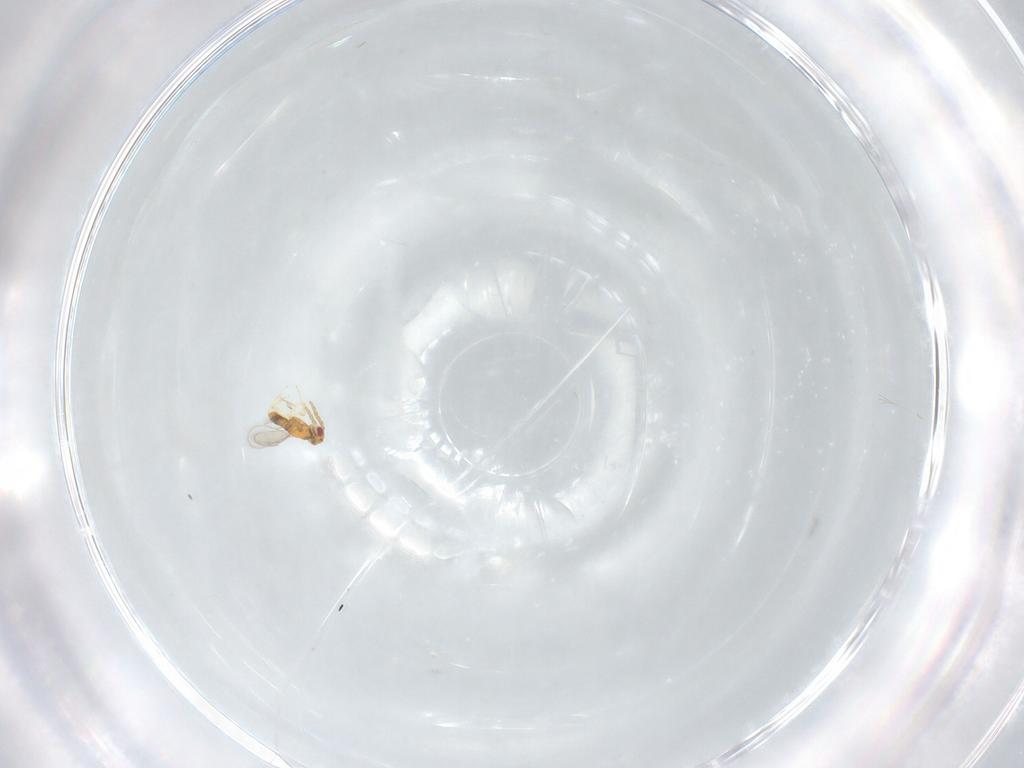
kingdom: Animalia
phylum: Arthropoda
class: Insecta
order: Hymenoptera
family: Aphelinidae
